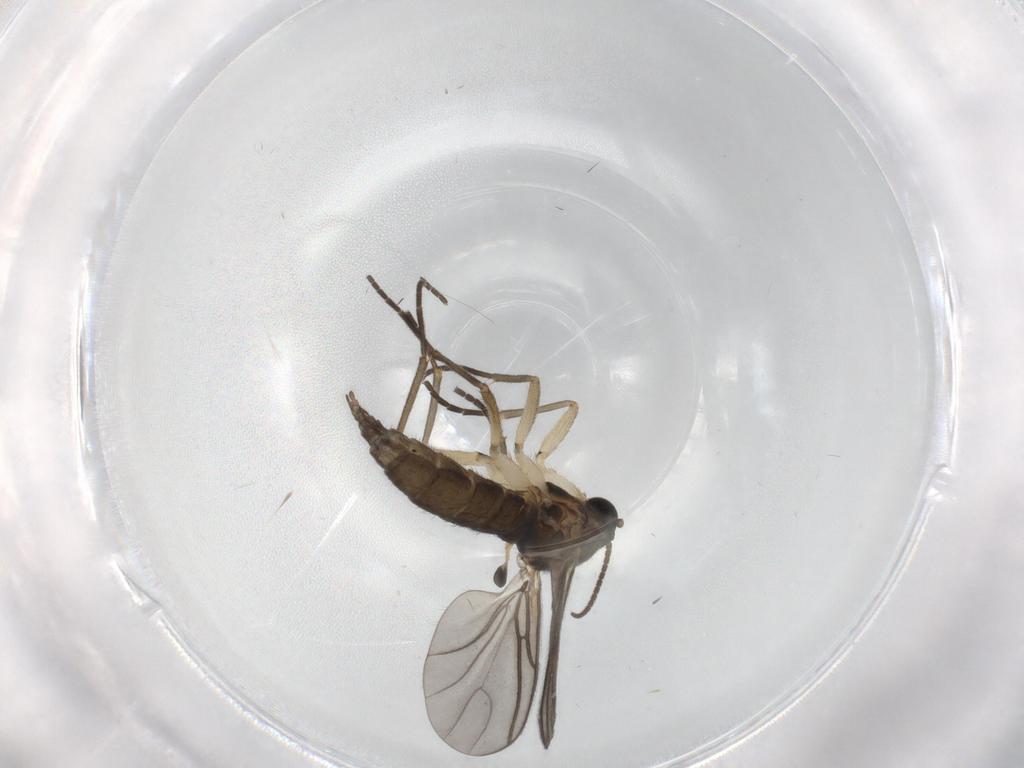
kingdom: Animalia
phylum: Arthropoda
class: Insecta
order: Diptera
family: Sciaridae
